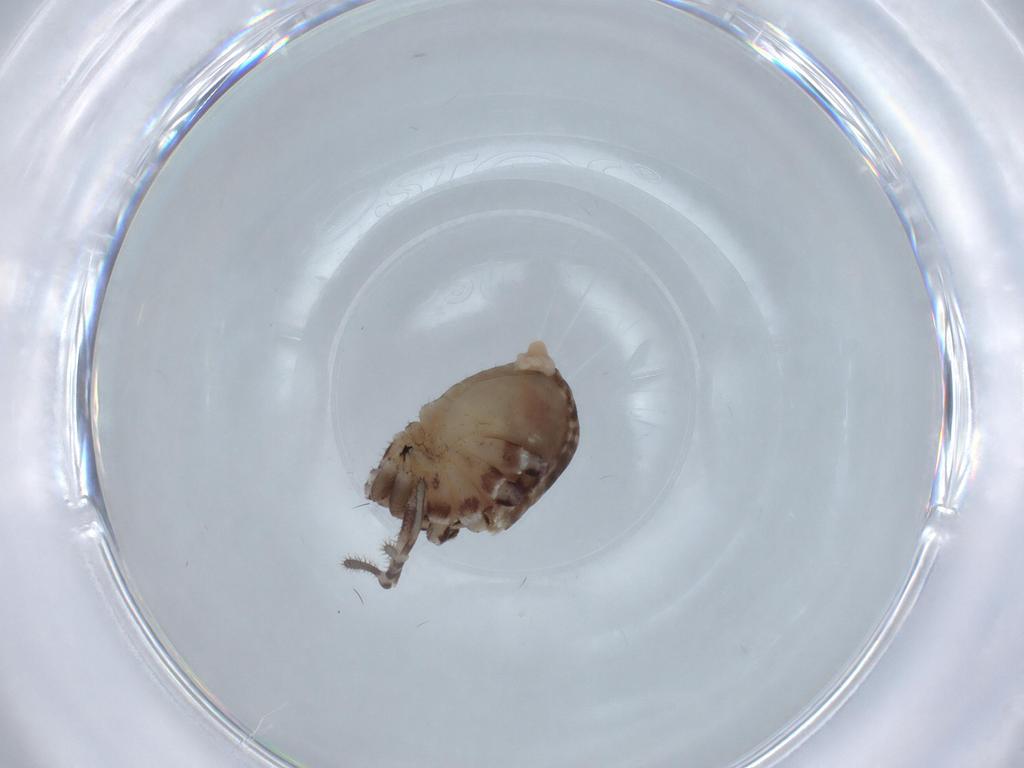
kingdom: Animalia
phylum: Arthropoda
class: Arachnida
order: Opiliones
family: Sclerosomatidae
